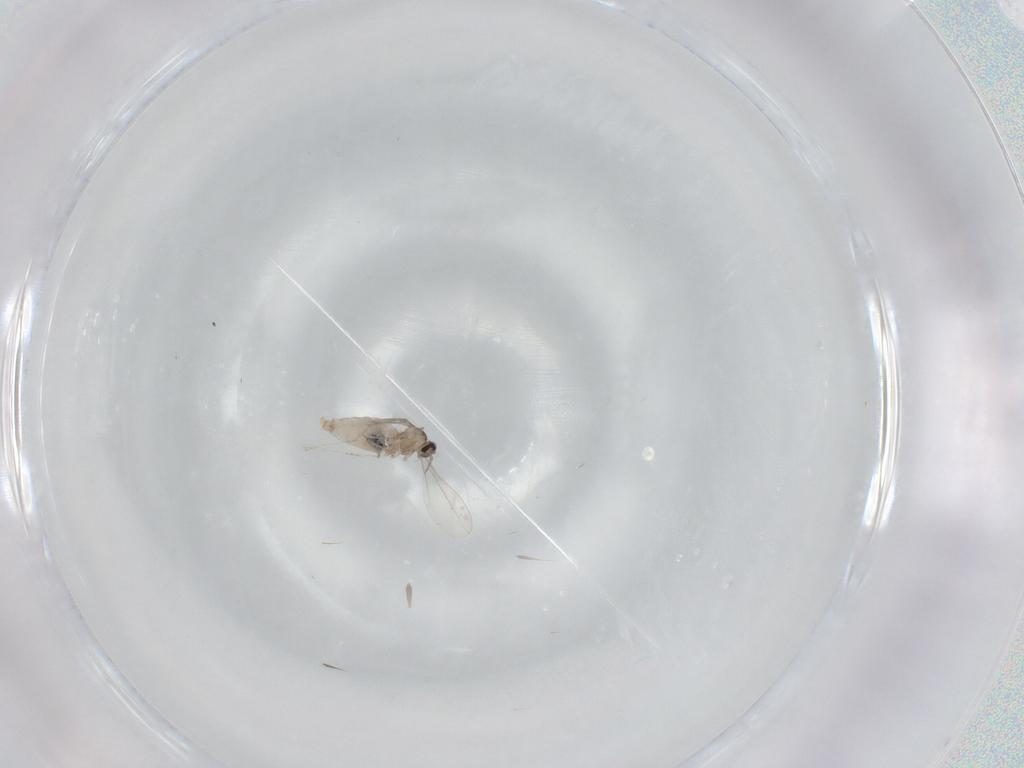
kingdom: Animalia
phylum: Arthropoda
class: Insecta
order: Diptera
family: Cecidomyiidae
